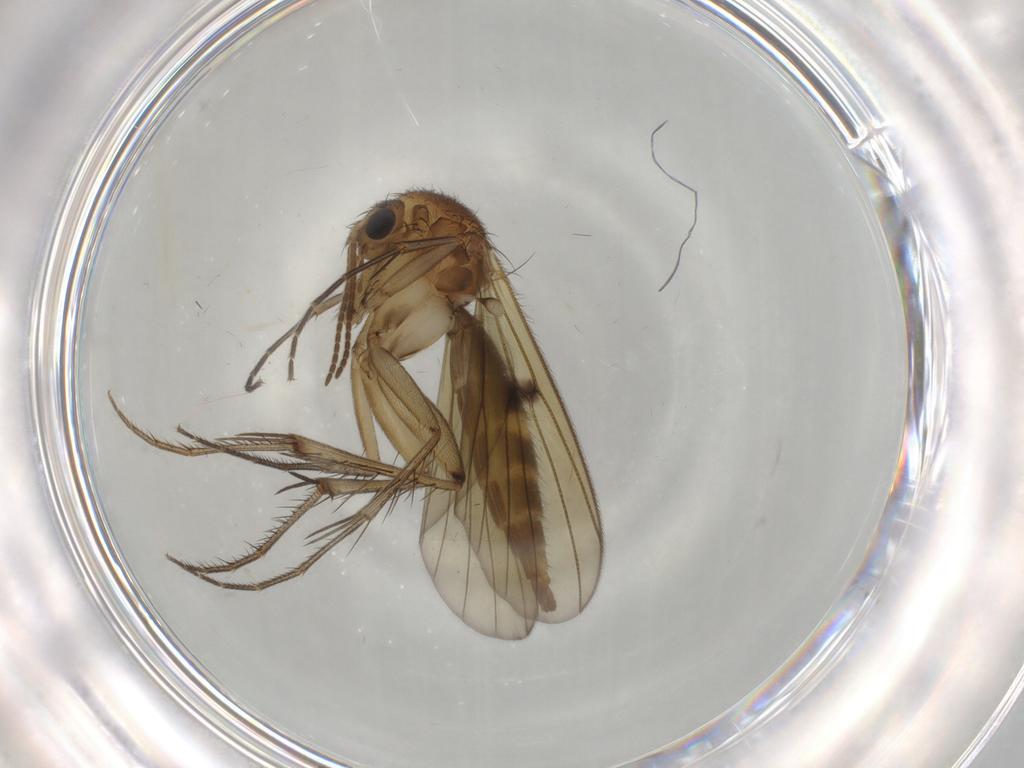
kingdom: Animalia
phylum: Arthropoda
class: Insecta
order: Diptera
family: Mycetophilidae
